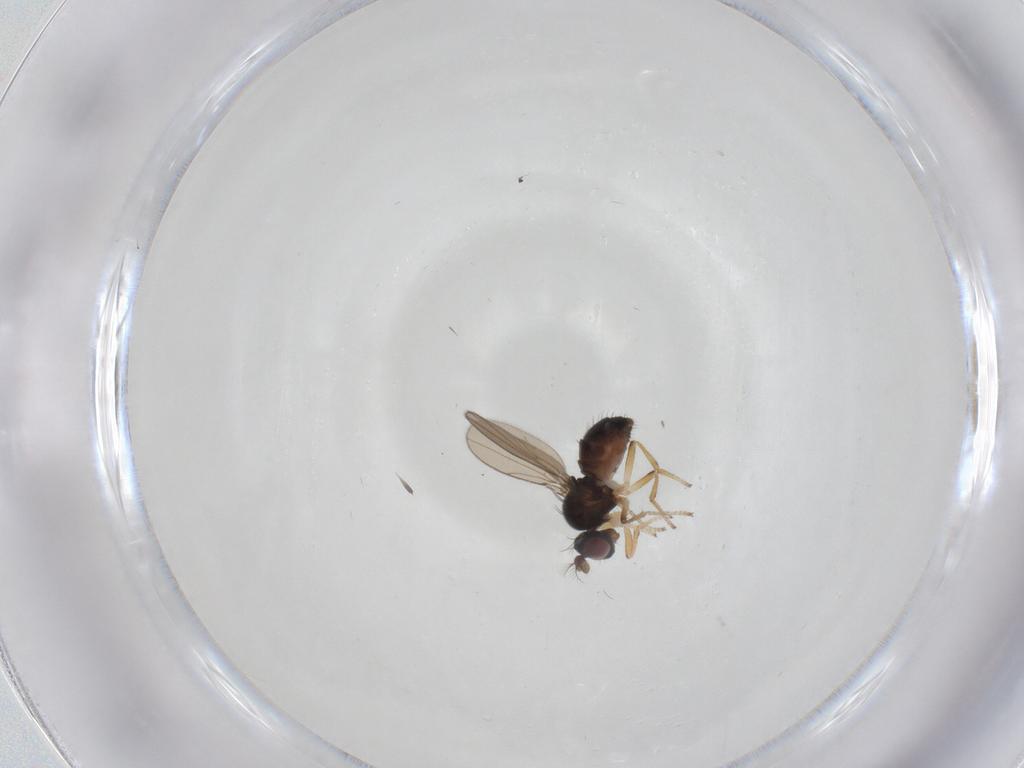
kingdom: Animalia
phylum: Arthropoda
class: Insecta
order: Diptera
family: Ephydridae
